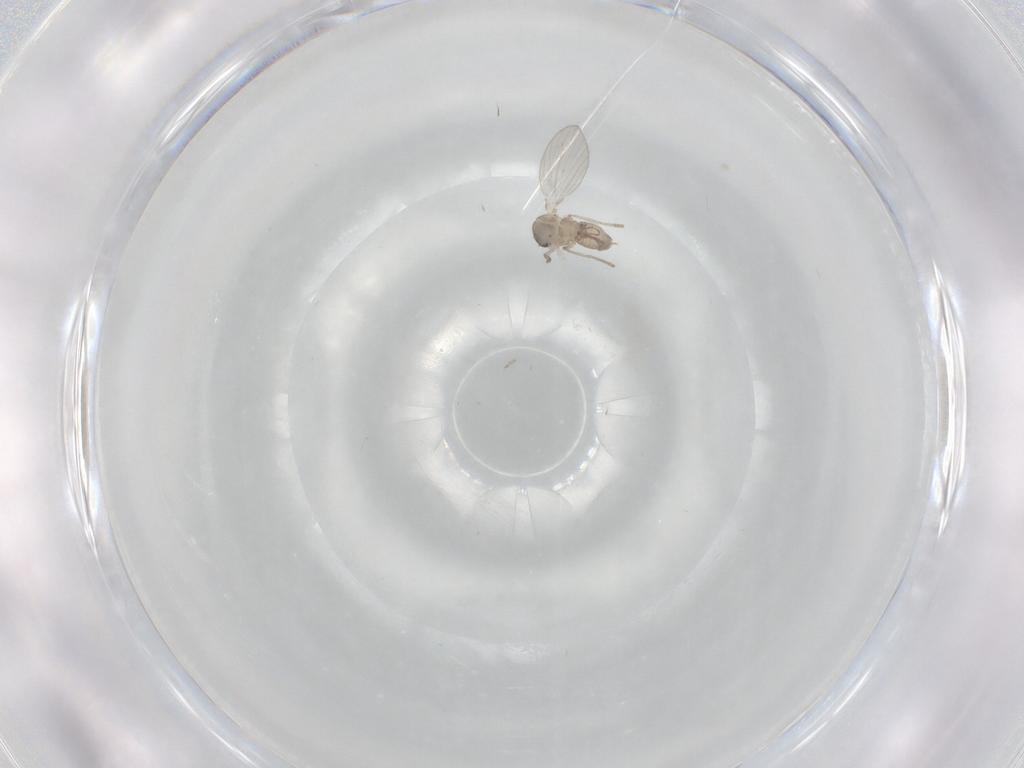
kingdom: Animalia
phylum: Arthropoda
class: Insecta
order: Diptera
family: Psychodidae
